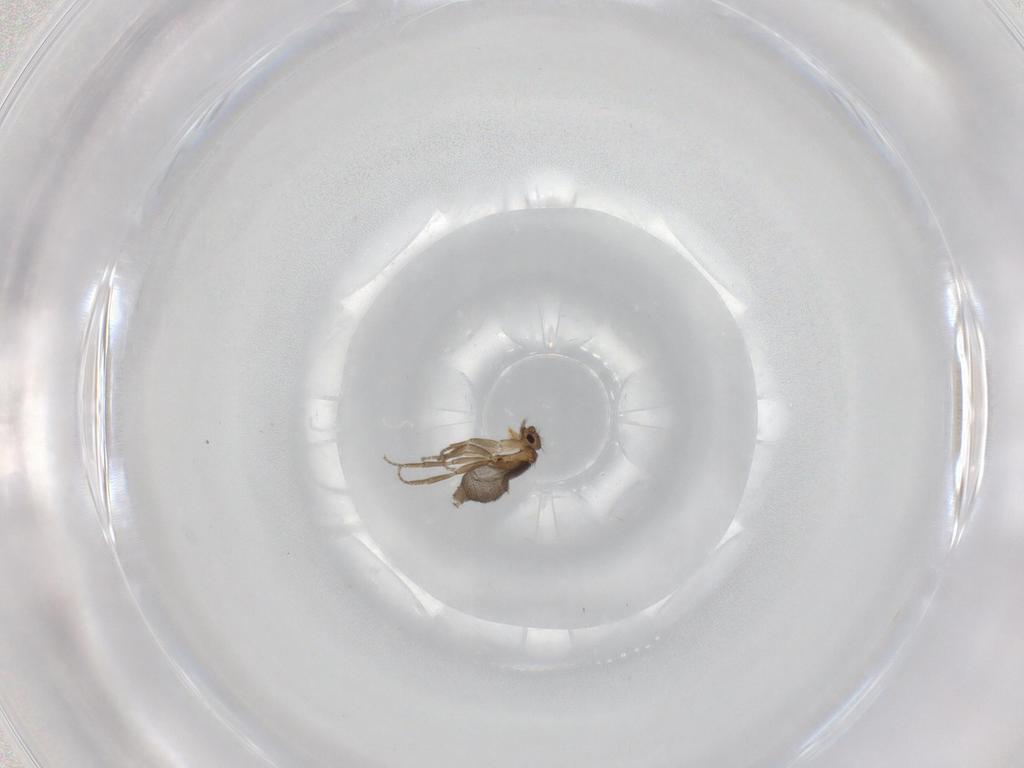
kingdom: Animalia
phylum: Arthropoda
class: Insecta
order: Diptera
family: Phoridae
